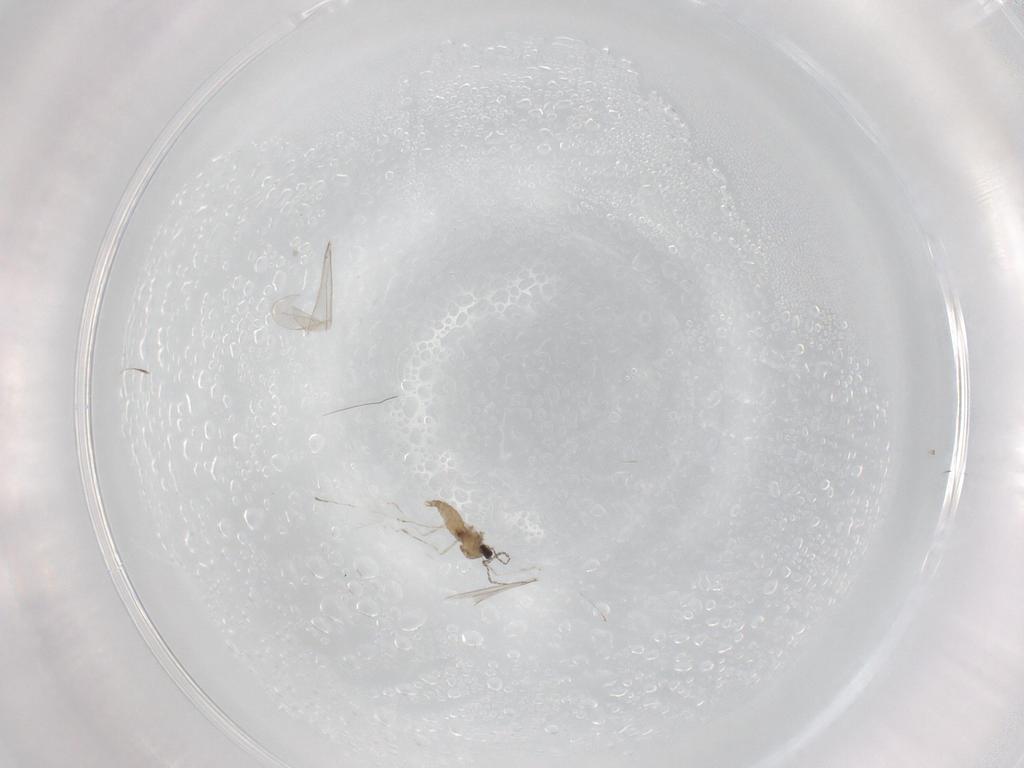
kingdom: Animalia
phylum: Arthropoda
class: Insecta
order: Diptera
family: Cecidomyiidae
